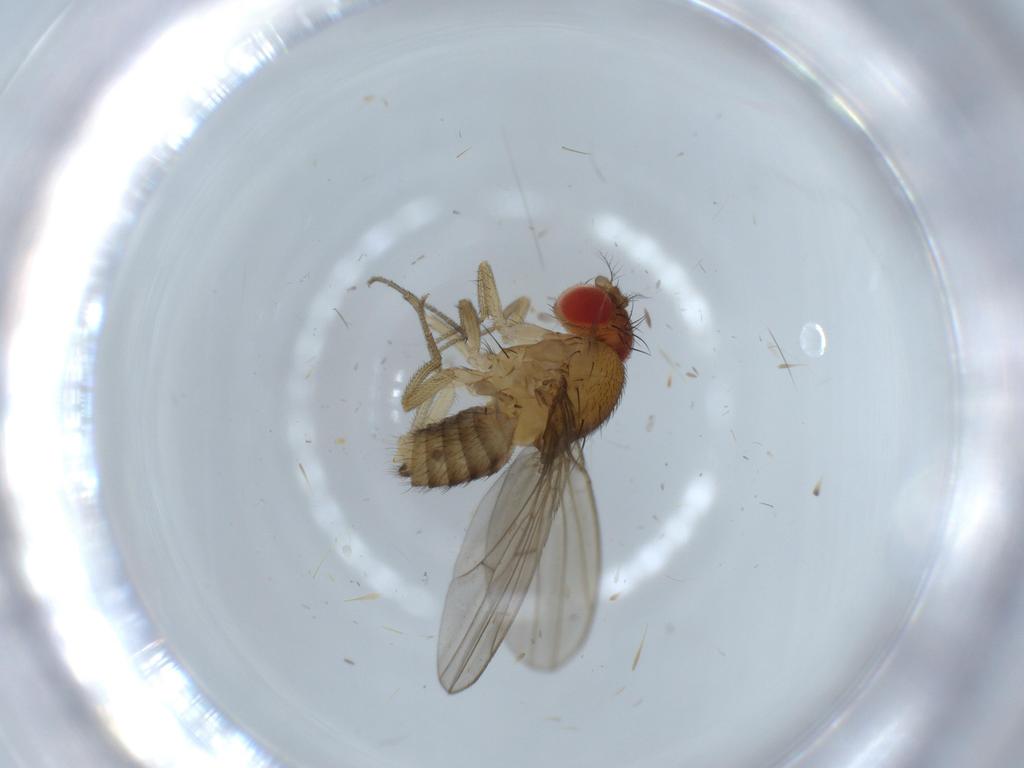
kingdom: Animalia
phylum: Arthropoda
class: Insecta
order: Diptera
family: Drosophilidae
